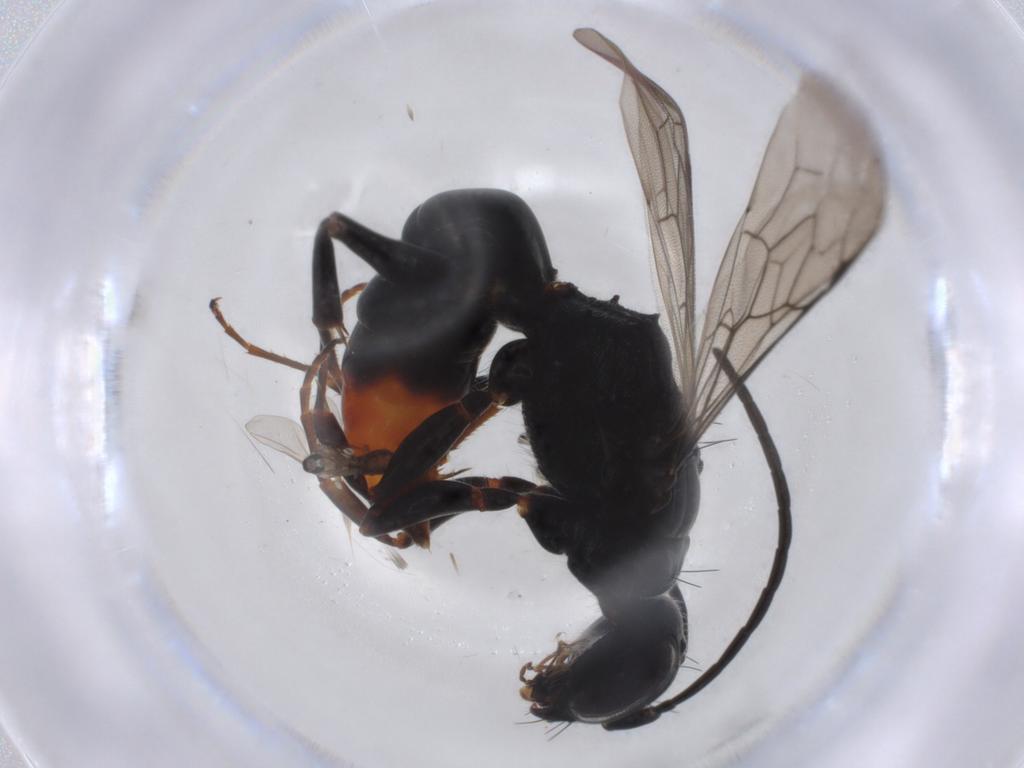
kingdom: Animalia
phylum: Arthropoda
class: Insecta
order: Hymenoptera
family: Azotidae
